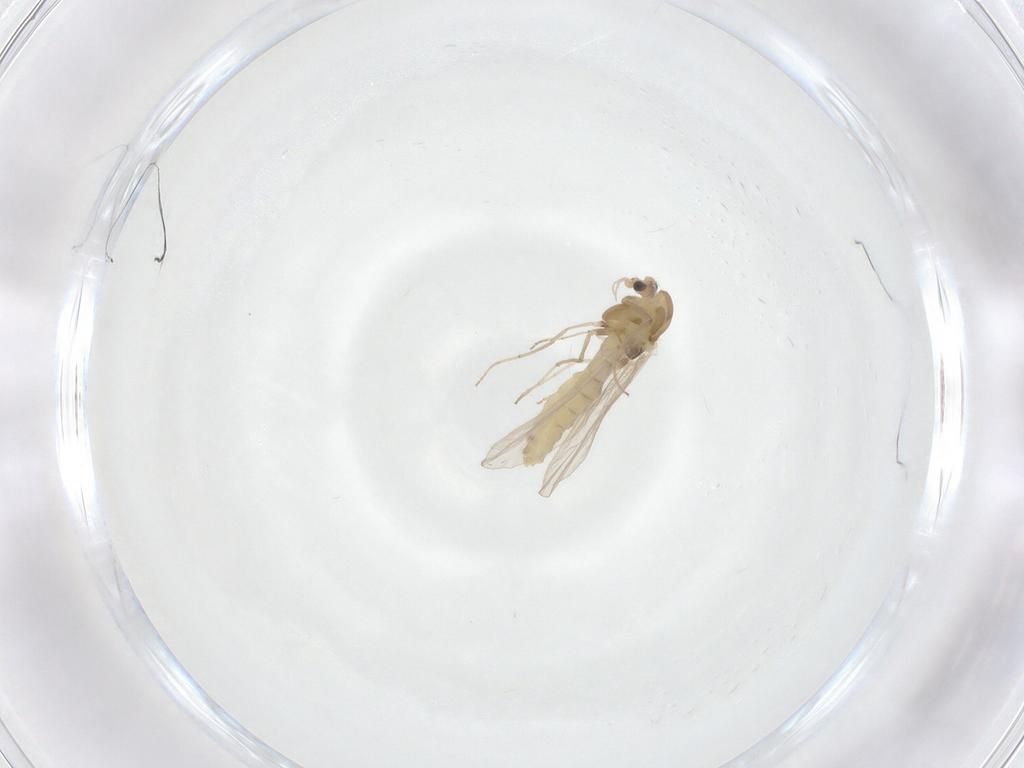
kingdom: Animalia
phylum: Arthropoda
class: Insecta
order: Diptera
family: Chironomidae
